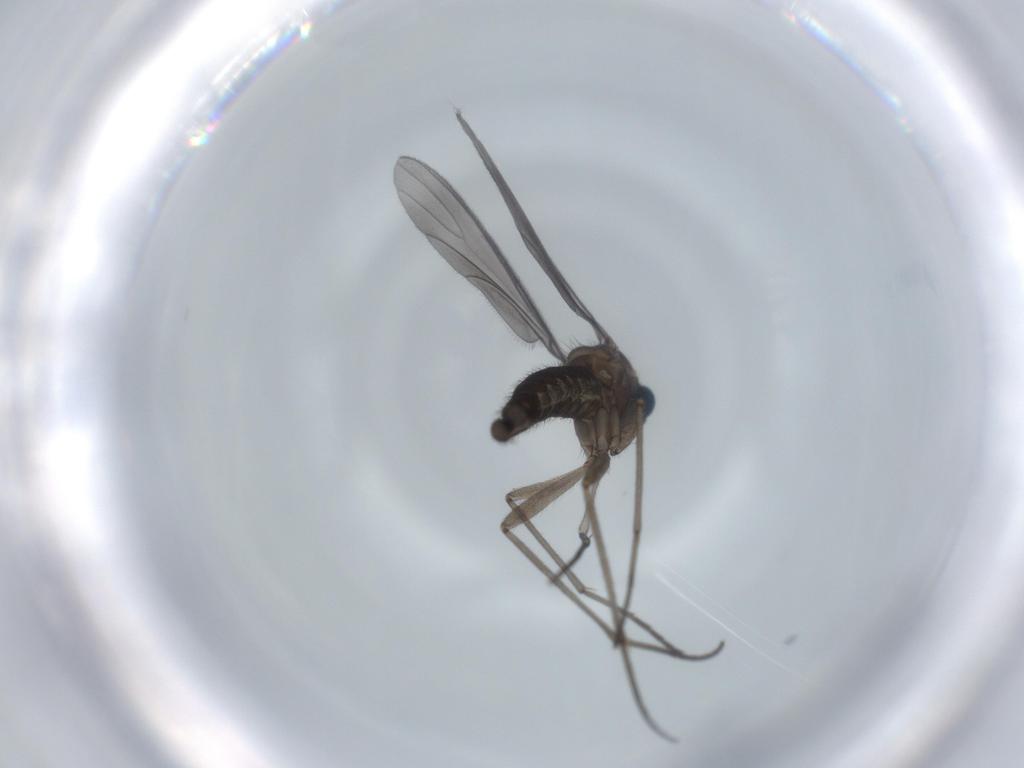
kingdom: Animalia
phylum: Arthropoda
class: Insecta
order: Diptera
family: Sciaridae
